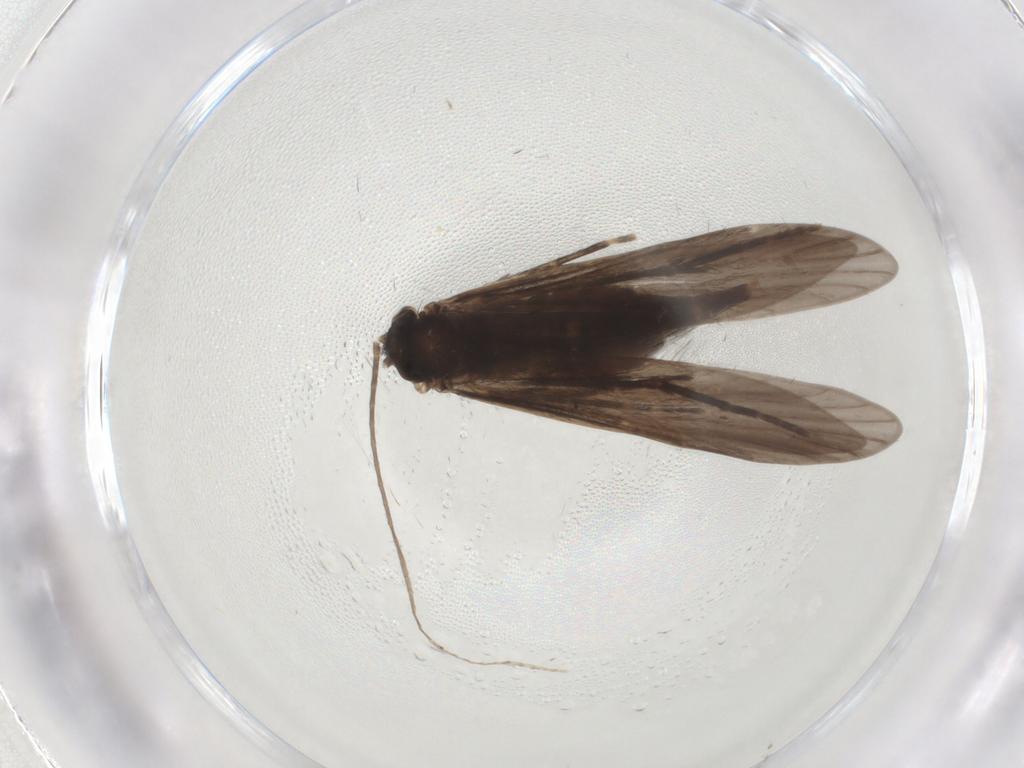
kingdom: Animalia
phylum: Arthropoda
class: Insecta
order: Trichoptera
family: Xiphocentronidae
